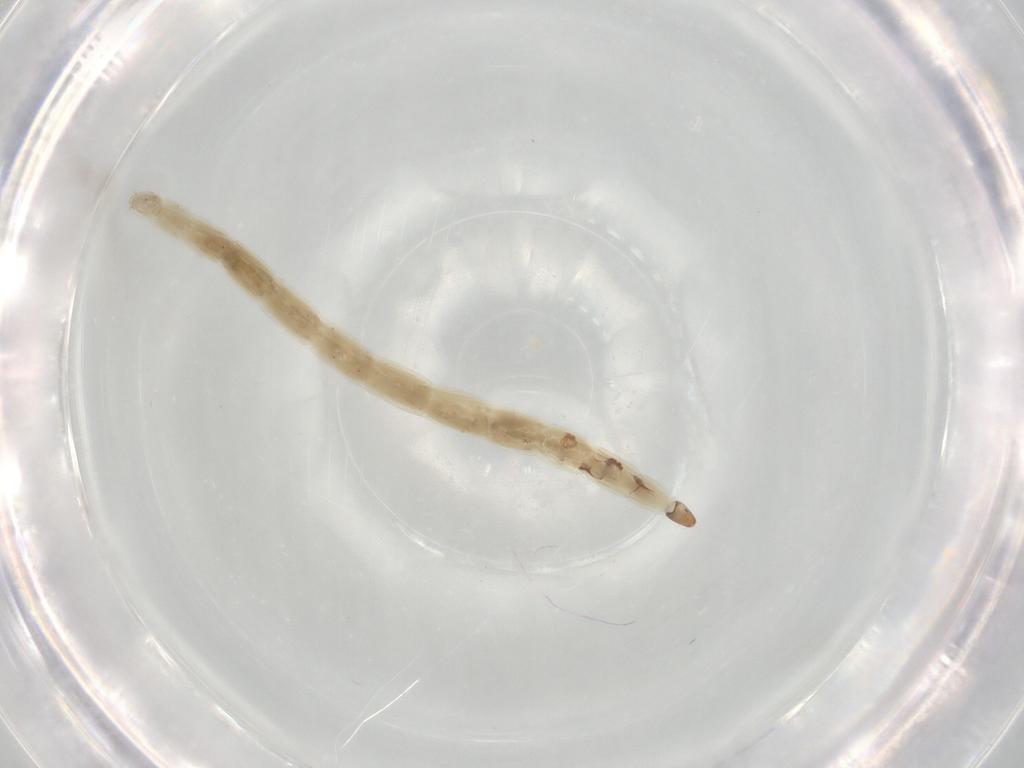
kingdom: Animalia
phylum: Arthropoda
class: Insecta
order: Diptera
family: Ceratopogonidae
